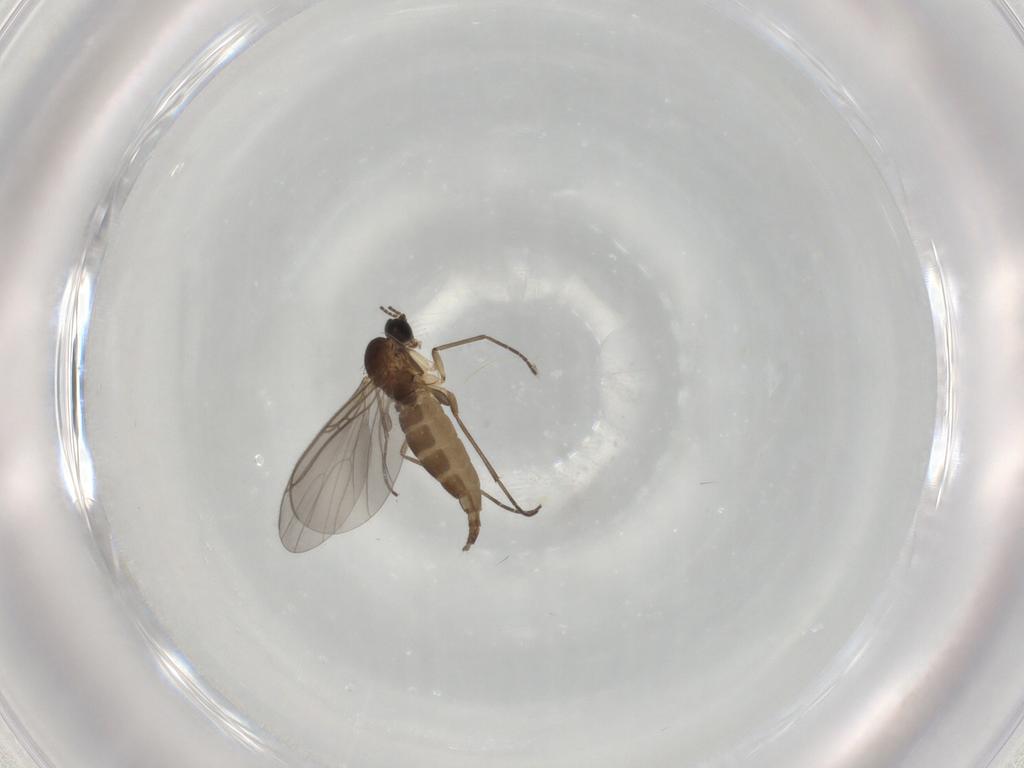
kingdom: Animalia
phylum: Arthropoda
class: Insecta
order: Diptera
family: Sciaridae
